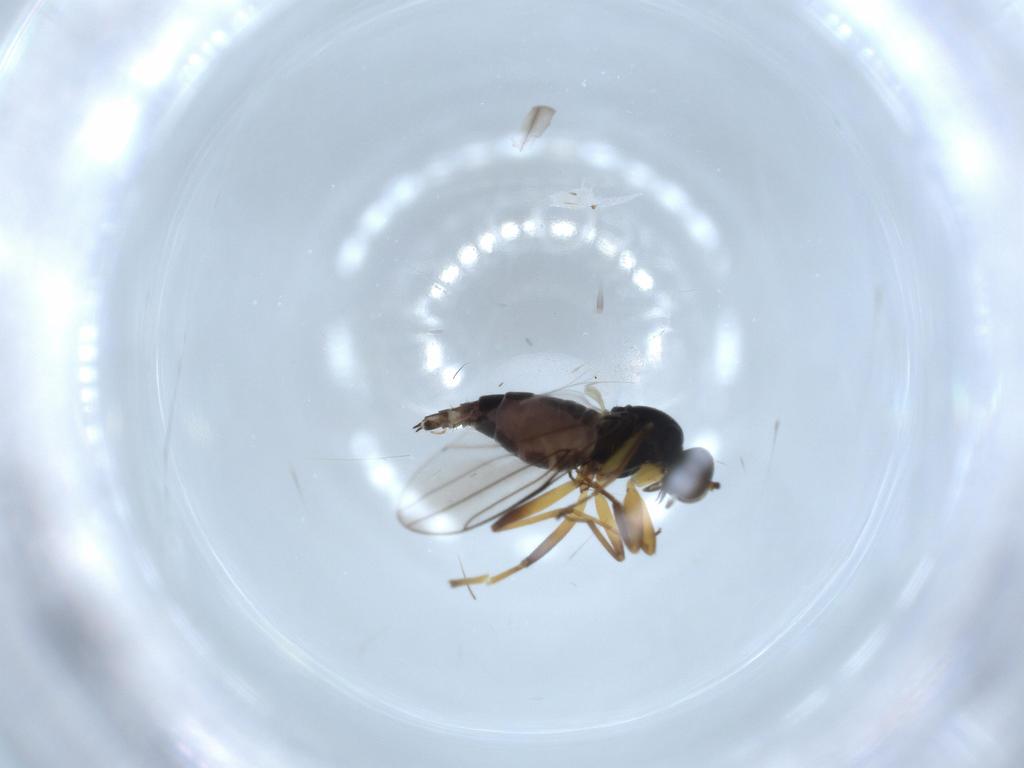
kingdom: Animalia
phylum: Arthropoda
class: Insecta
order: Diptera
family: Hybotidae
